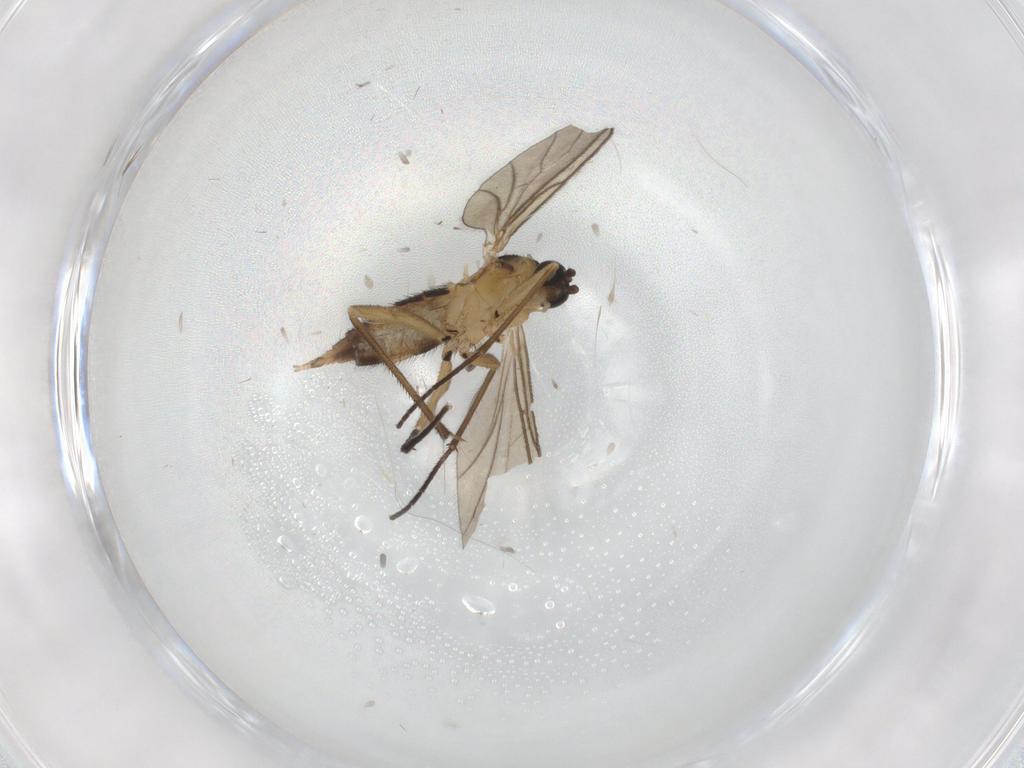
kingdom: Animalia
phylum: Arthropoda
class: Insecta
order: Diptera
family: Sciaridae
